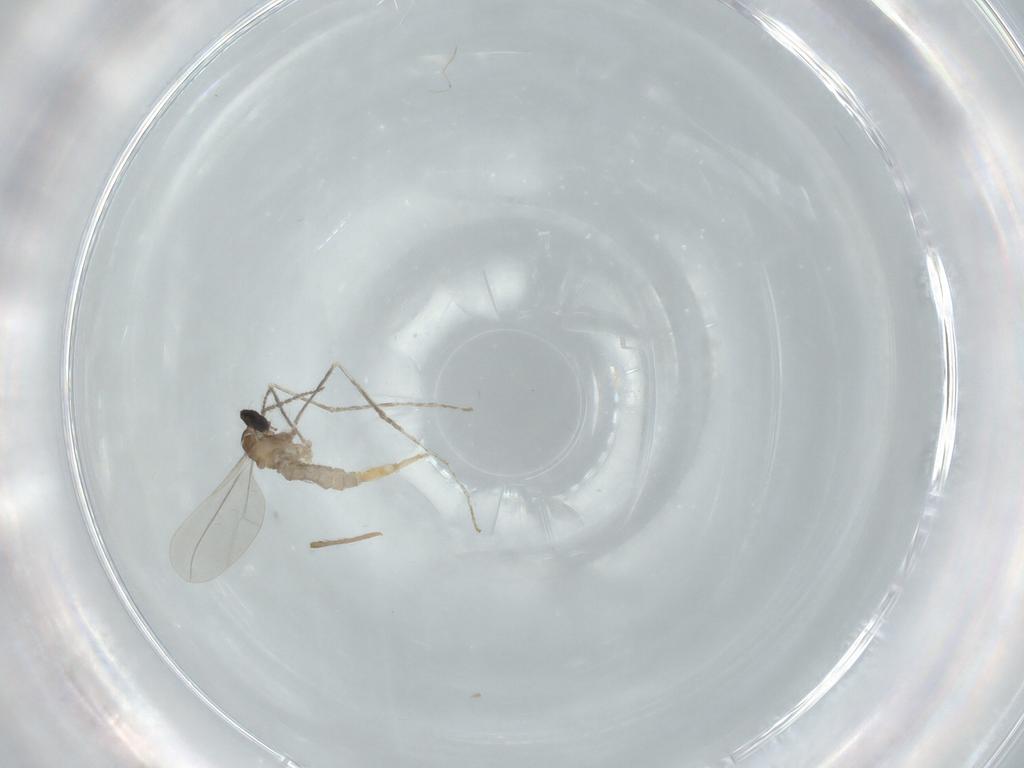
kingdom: Animalia
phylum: Arthropoda
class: Insecta
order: Diptera
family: Cecidomyiidae
